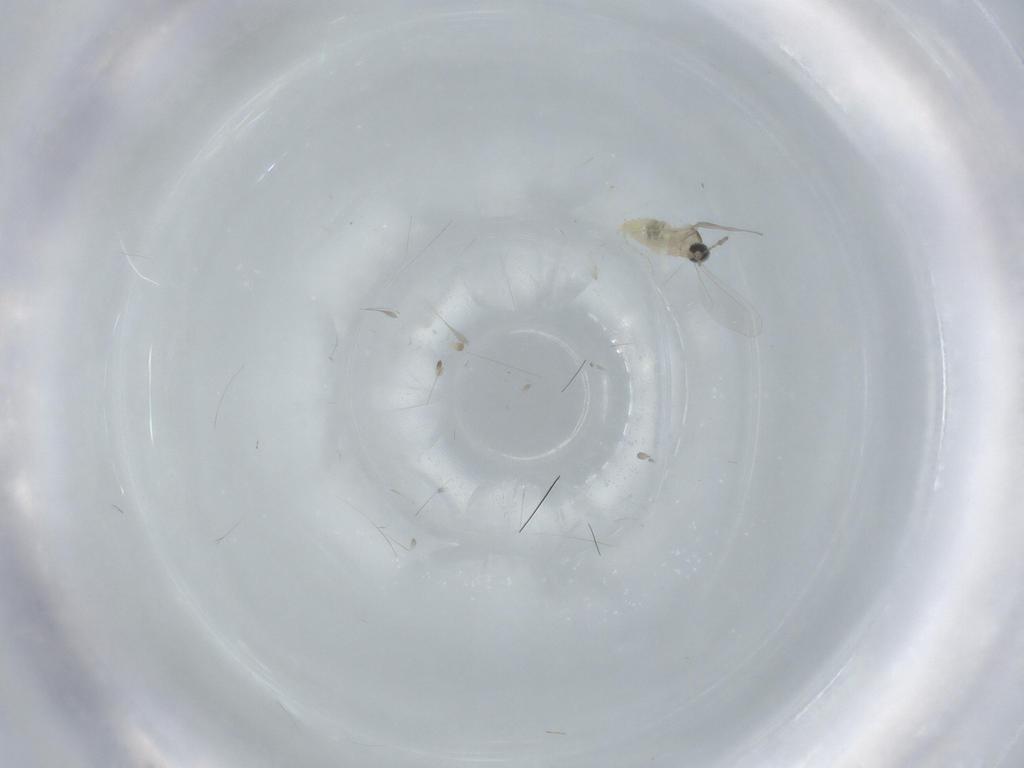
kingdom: Animalia
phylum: Arthropoda
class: Insecta
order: Diptera
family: Cecidomyiidae
